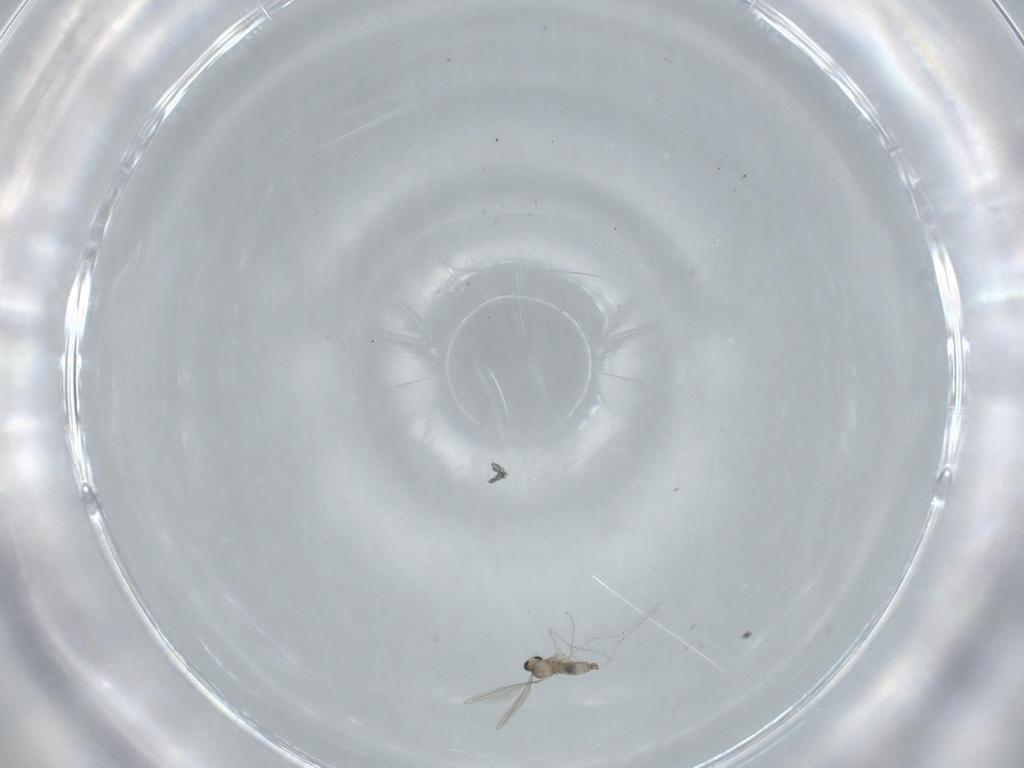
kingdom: Animalia
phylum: Arthropoda
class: Insecta
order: Diptera
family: Cecidomyiidae
